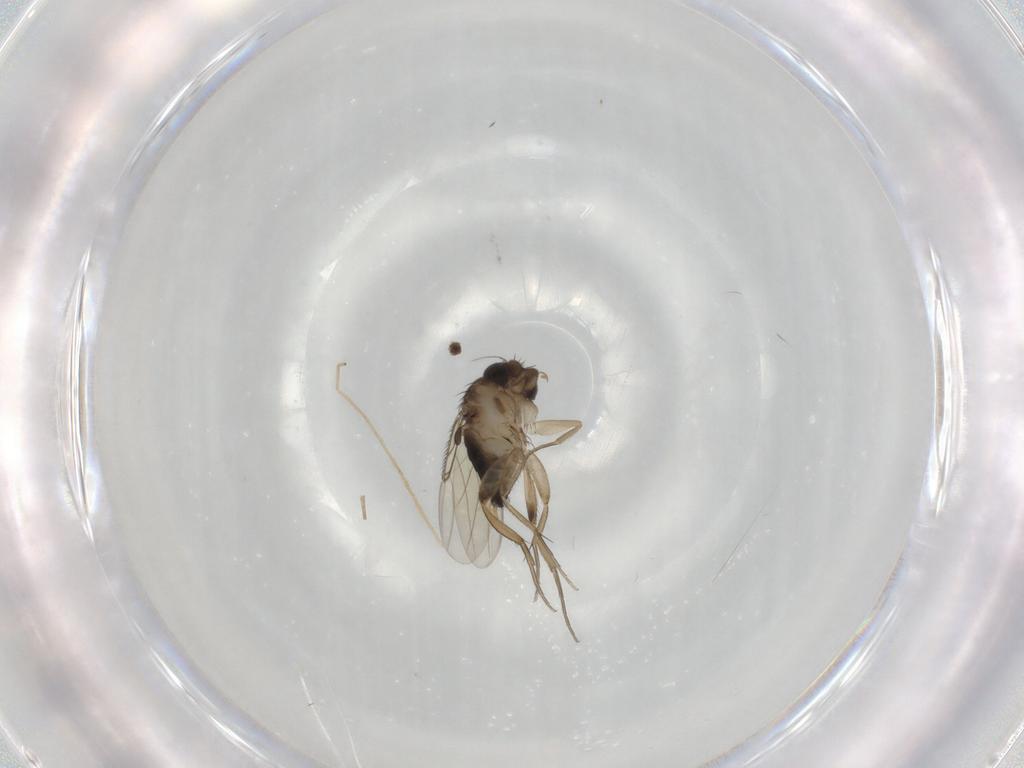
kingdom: Animalia
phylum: Arthropoda
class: Insecta
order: Diptera
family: Phoridae
